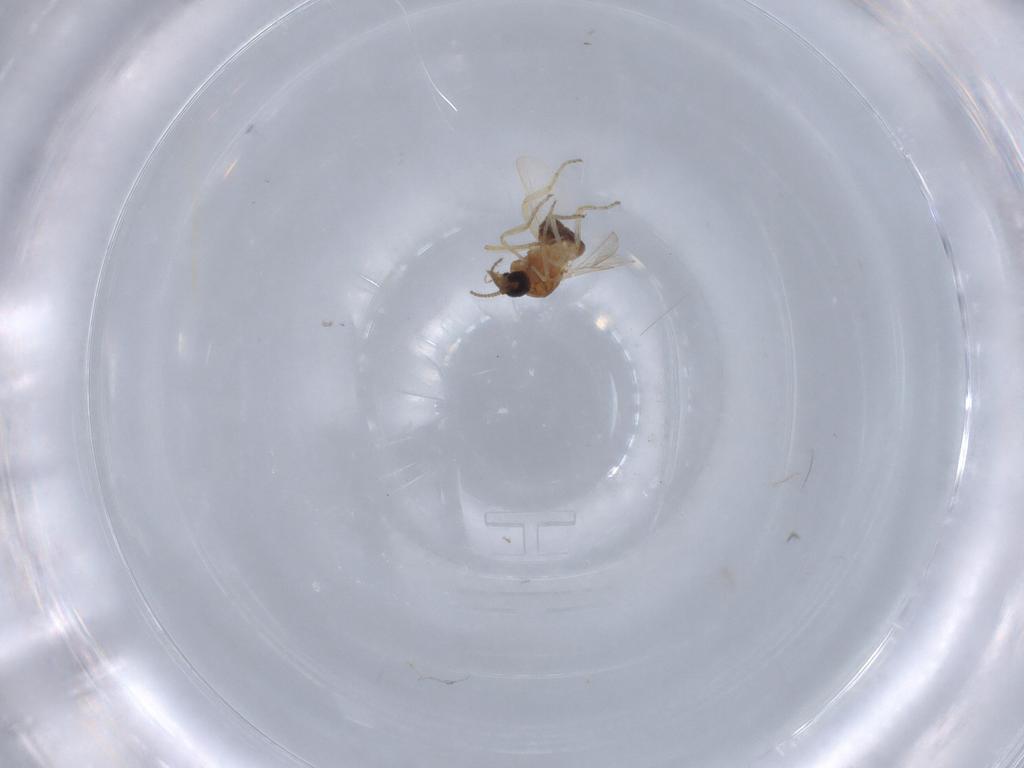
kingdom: Animalia
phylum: Arthropoda
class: Insecta
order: Diptera
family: Ceratopogonidae
